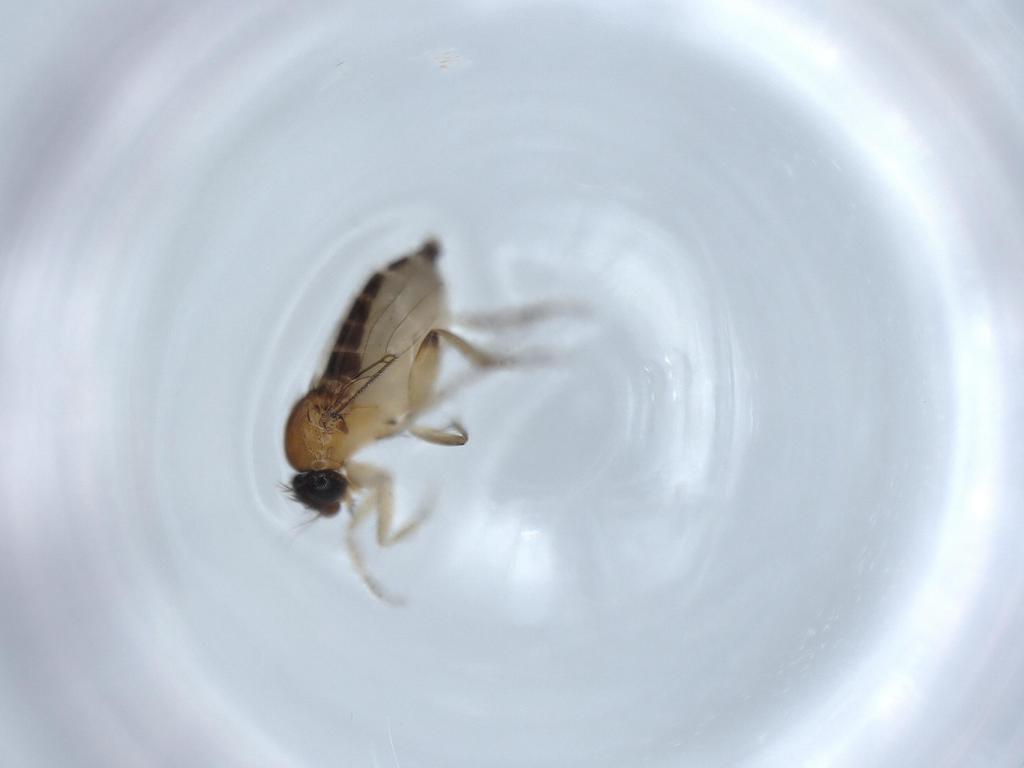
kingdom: Animalia
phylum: Arthropoda
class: Insecta
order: Diptera
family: Phoridae
